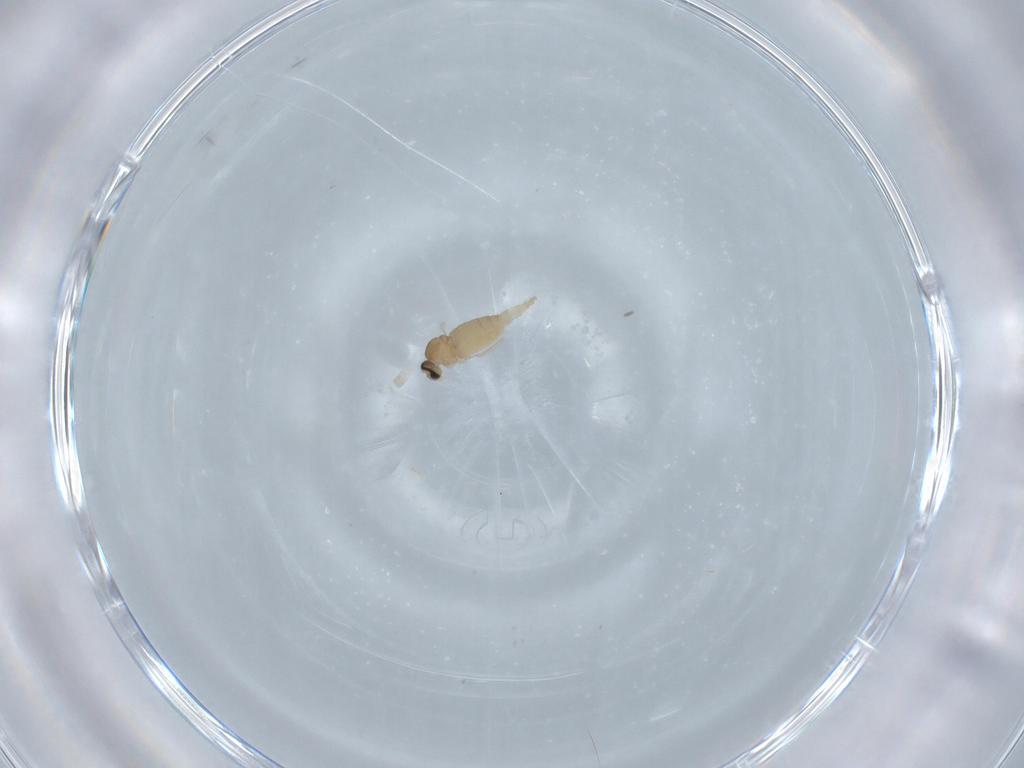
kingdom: Animalia
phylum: Arthropoda
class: Insecta
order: Diptera
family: Cecidomyiidae
